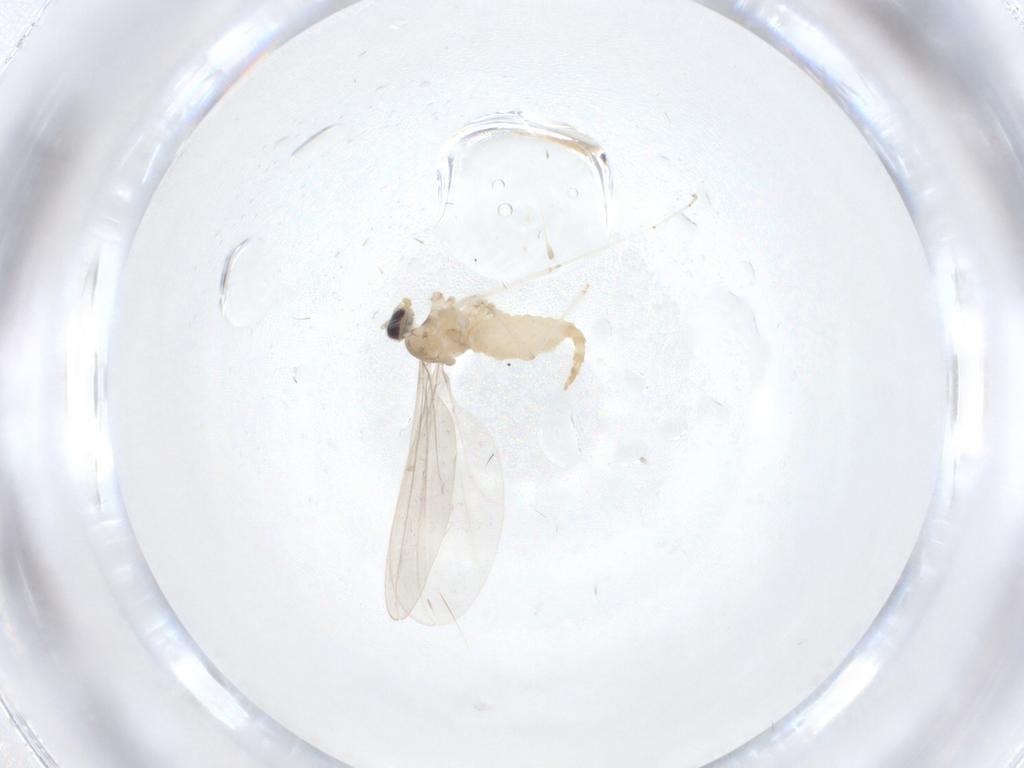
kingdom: Animalia
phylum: Arthropoda
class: Insecta
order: Diptera
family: Cecidomyiidae
